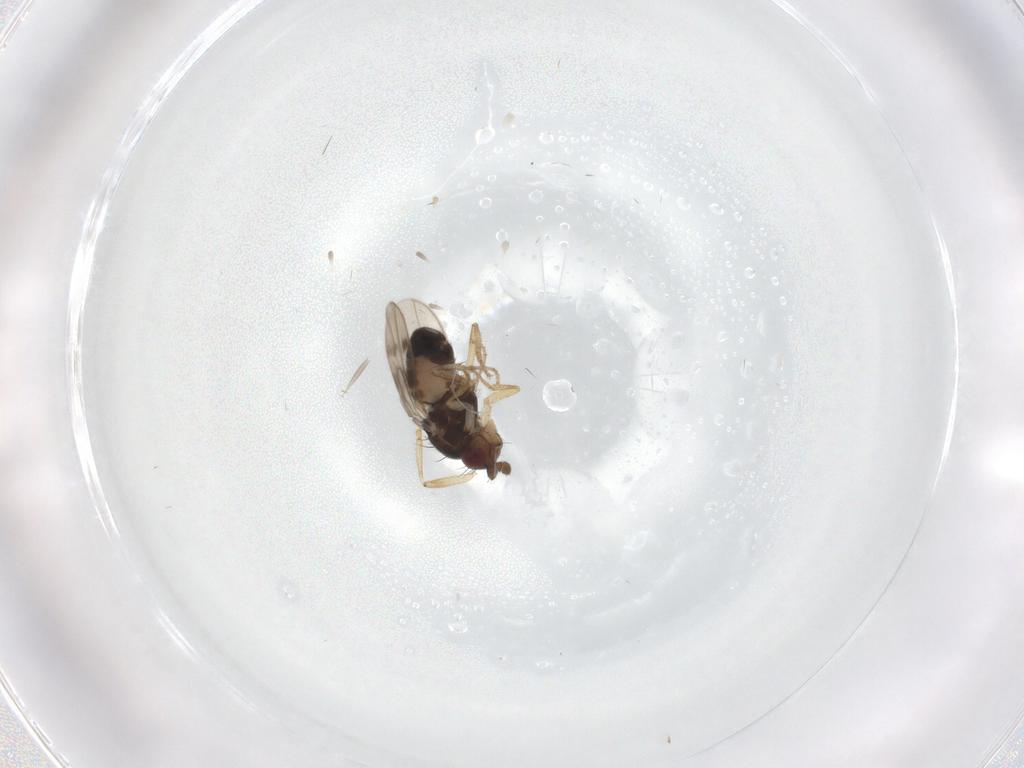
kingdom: Animalia
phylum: Arthropoda
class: Insecta
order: Diptera
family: Sphaeroceridae
